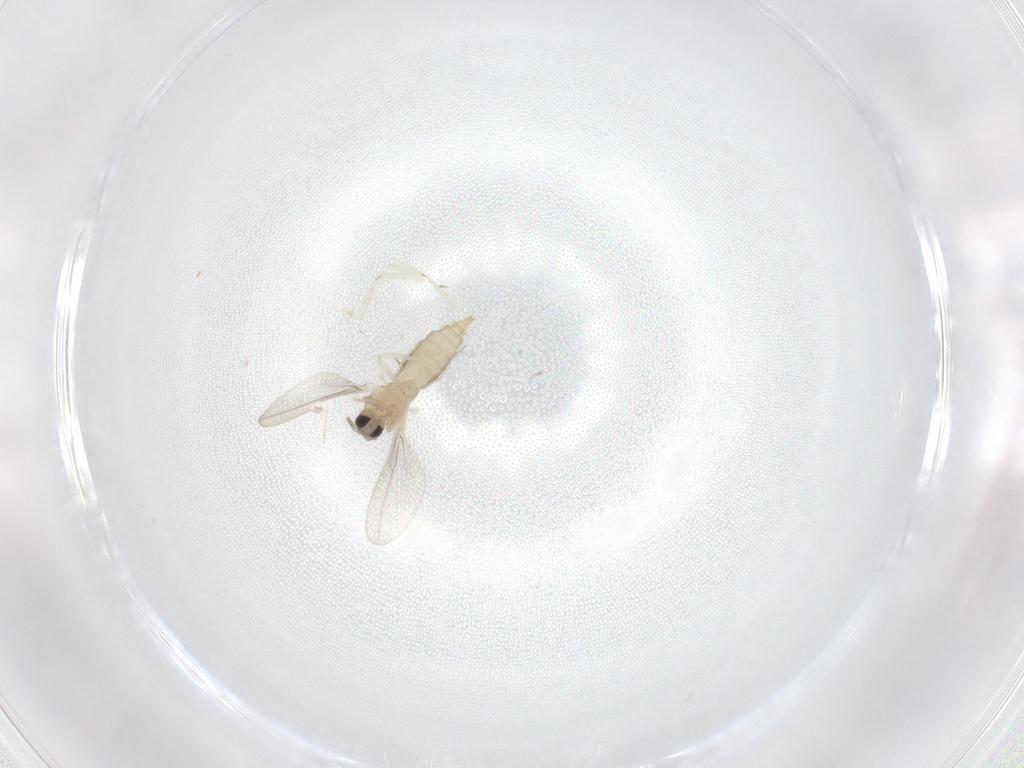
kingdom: Animalia
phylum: Arthropoda
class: Insecta
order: Diptera
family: Cecidomyiidae
